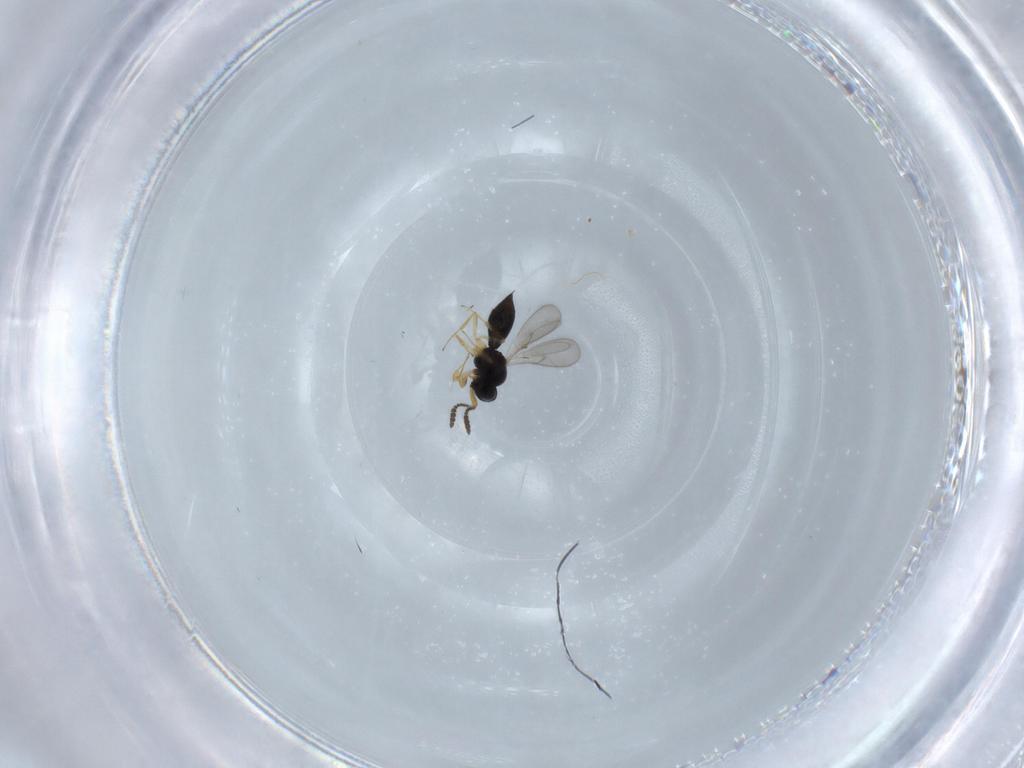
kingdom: Animalia
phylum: Arthropoda
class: Insecta
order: Hymenoptera
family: Scelionidae
